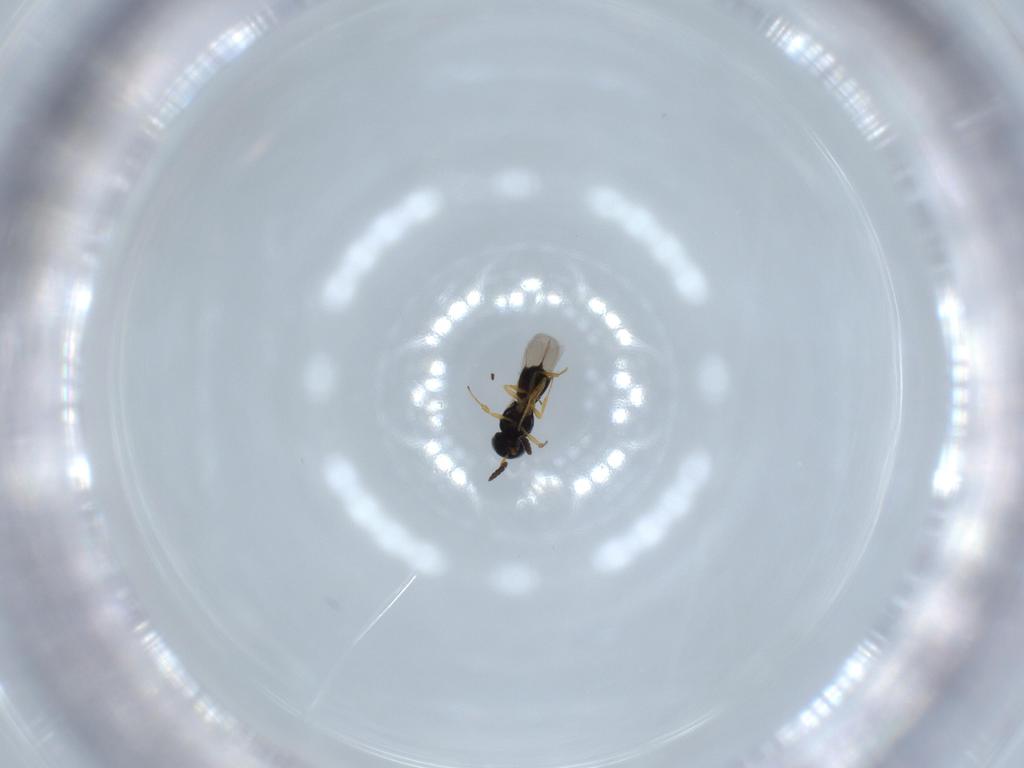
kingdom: Animalia
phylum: Arthropoda
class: Insecta
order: Hymenoptera
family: Scelionidae
